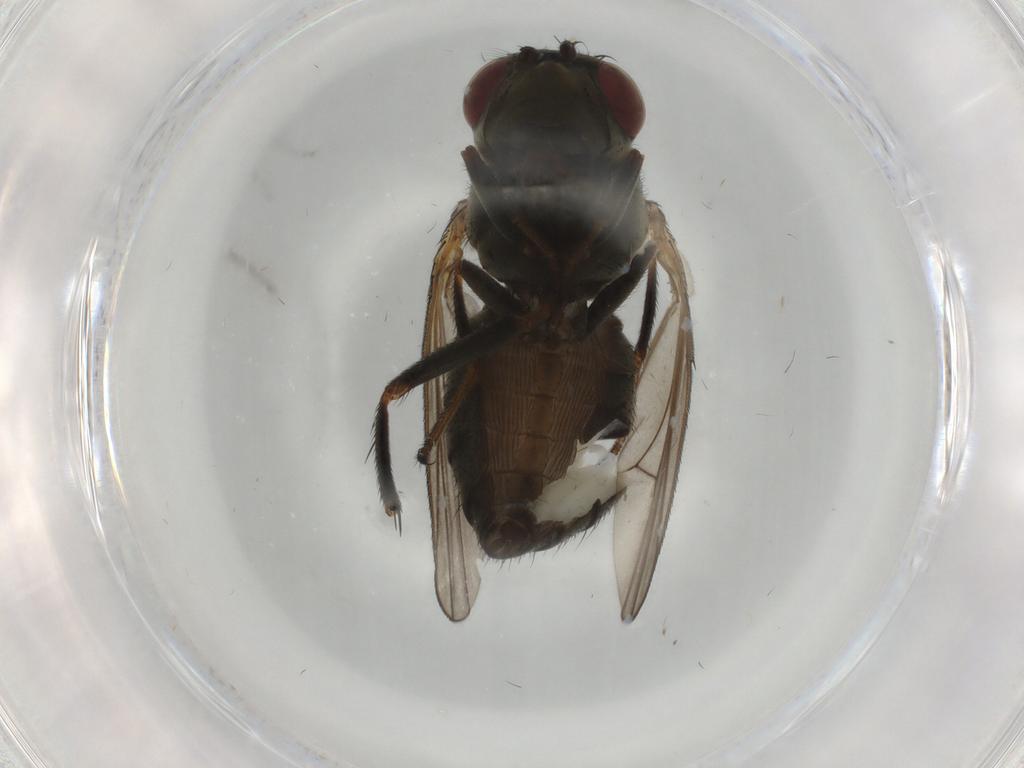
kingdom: Animalia
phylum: Arthropoda
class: Insecta
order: Diptera
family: Ephydridae
